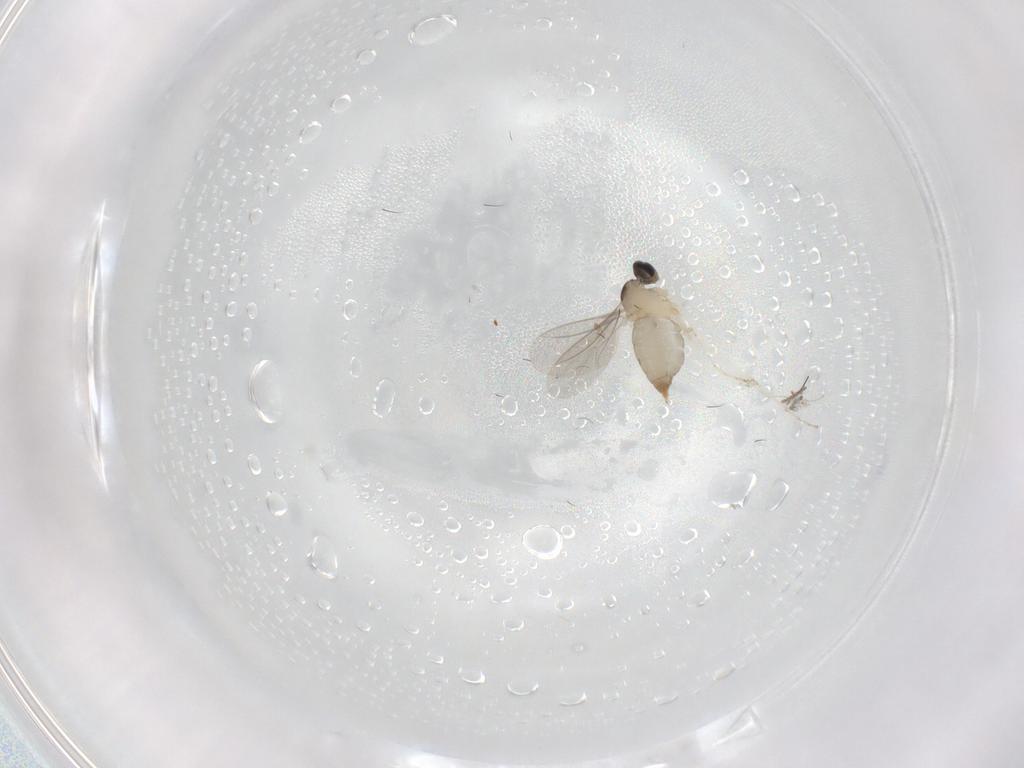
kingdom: Animalia
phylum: Arthropoda
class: Insecta
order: Diptera
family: Cecidomyiidae
